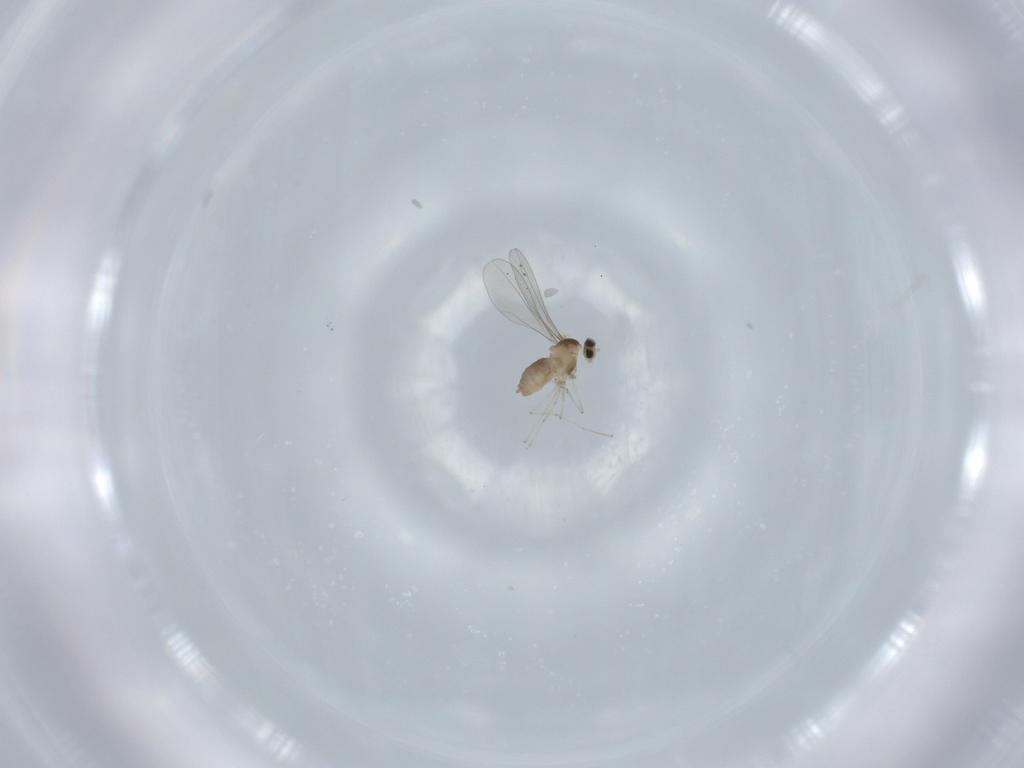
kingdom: Animalia
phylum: Arthropoda
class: Insecta
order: Diptera
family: Cecidomyiidae
